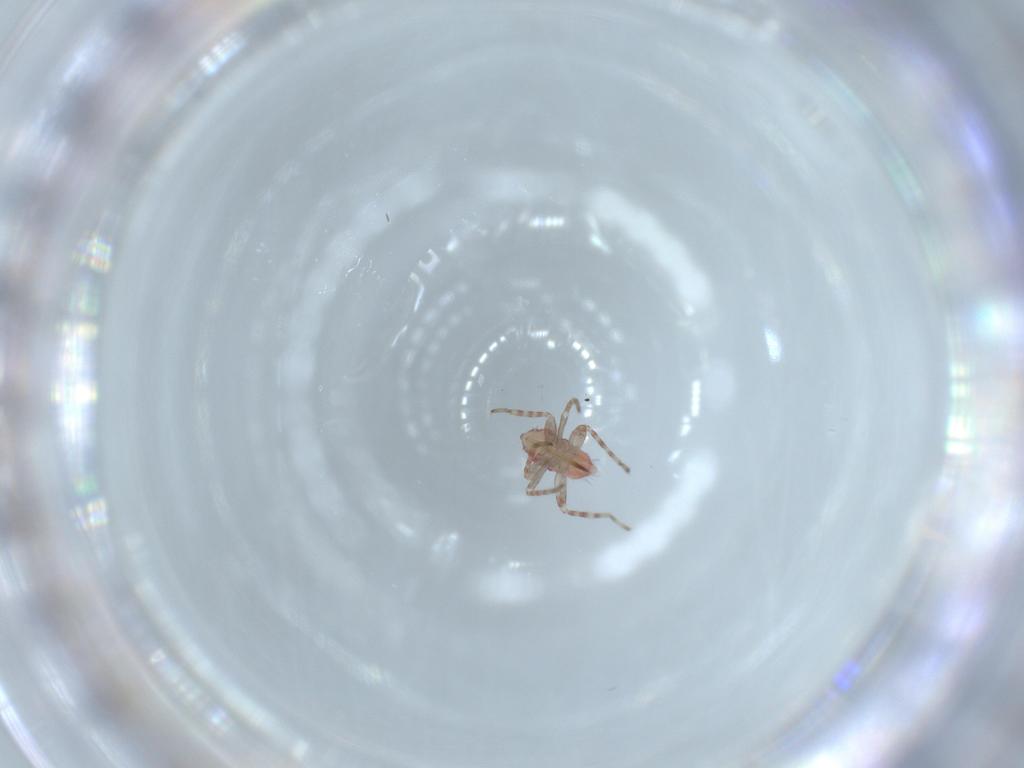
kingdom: Animalia
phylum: Arthropoda
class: Insecta
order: Hemiptera
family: Miridae
